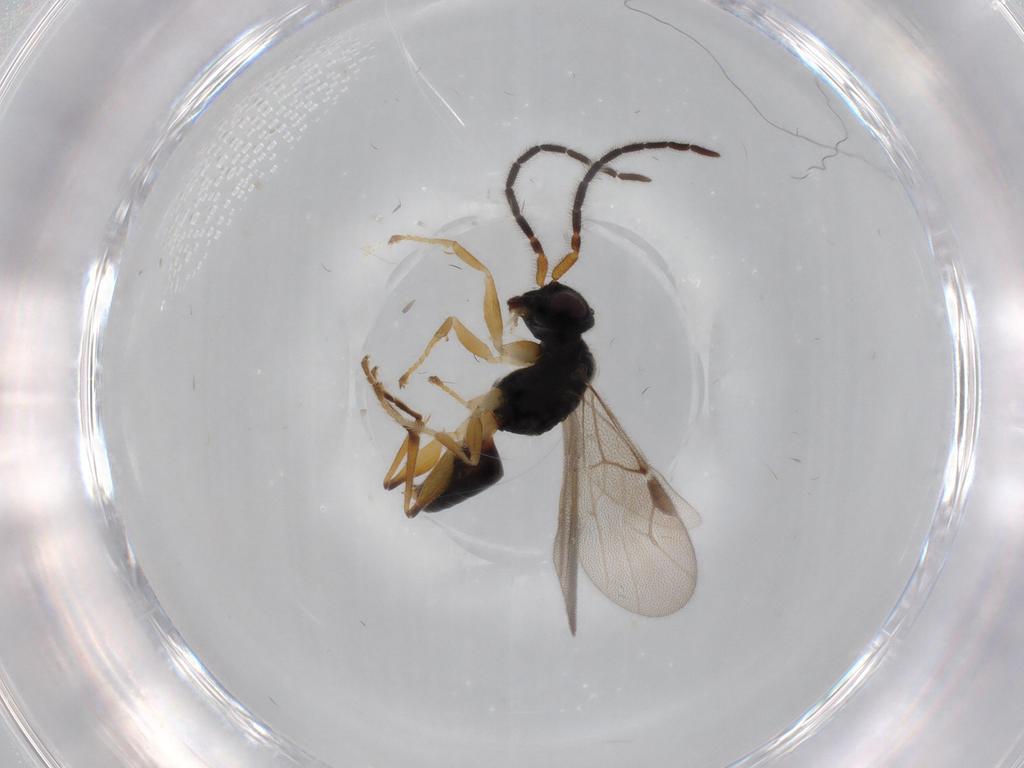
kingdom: Animalia
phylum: Arthropoda
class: Insecta
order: Hymenoptera
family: Dryinidae
